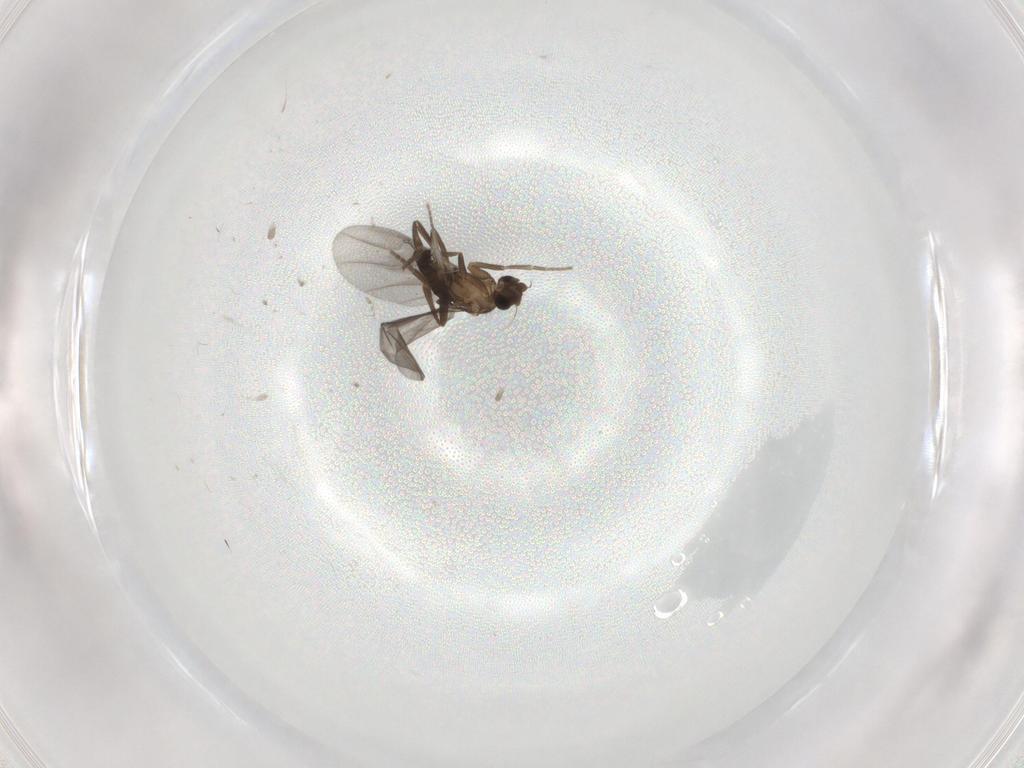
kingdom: Animalia
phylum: Arthropoda
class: Insecta
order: Diptera
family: Phoridae
